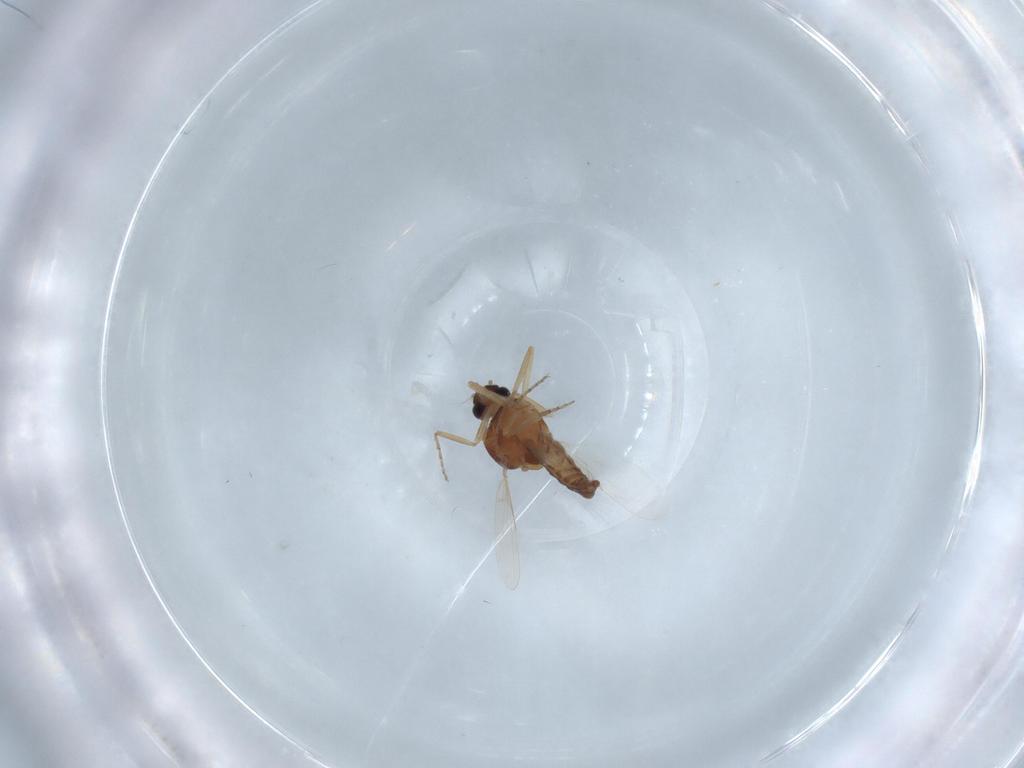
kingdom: Animalia
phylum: Arthropoda
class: Insecta
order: Diptera
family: Ceratopogonidae
